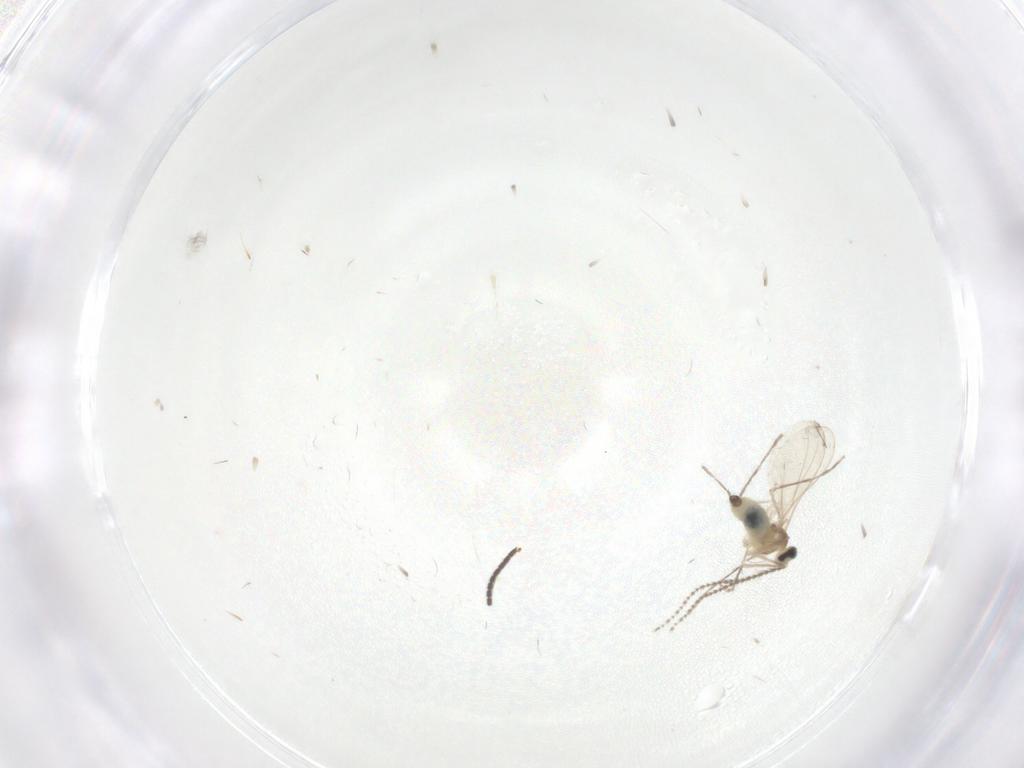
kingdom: Animalia
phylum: Arthropoda
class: Insecta
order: Diptera
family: Sciaridae
